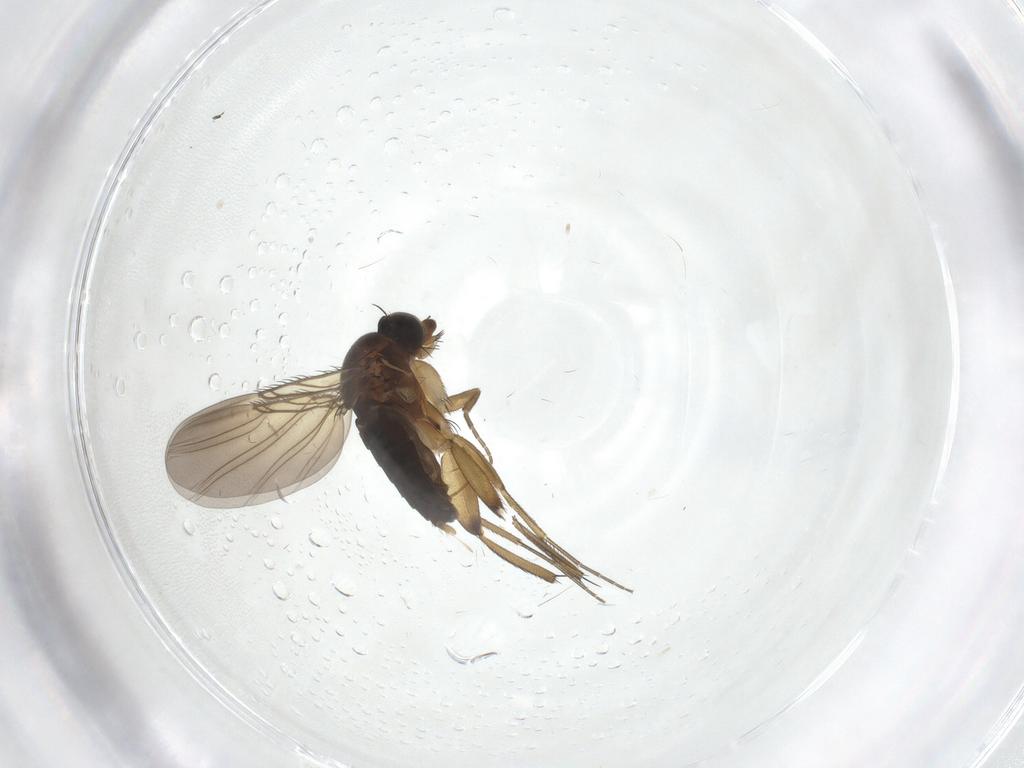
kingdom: Animalia
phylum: Arthropoda
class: Insecta
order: Diptera
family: Phoridae
